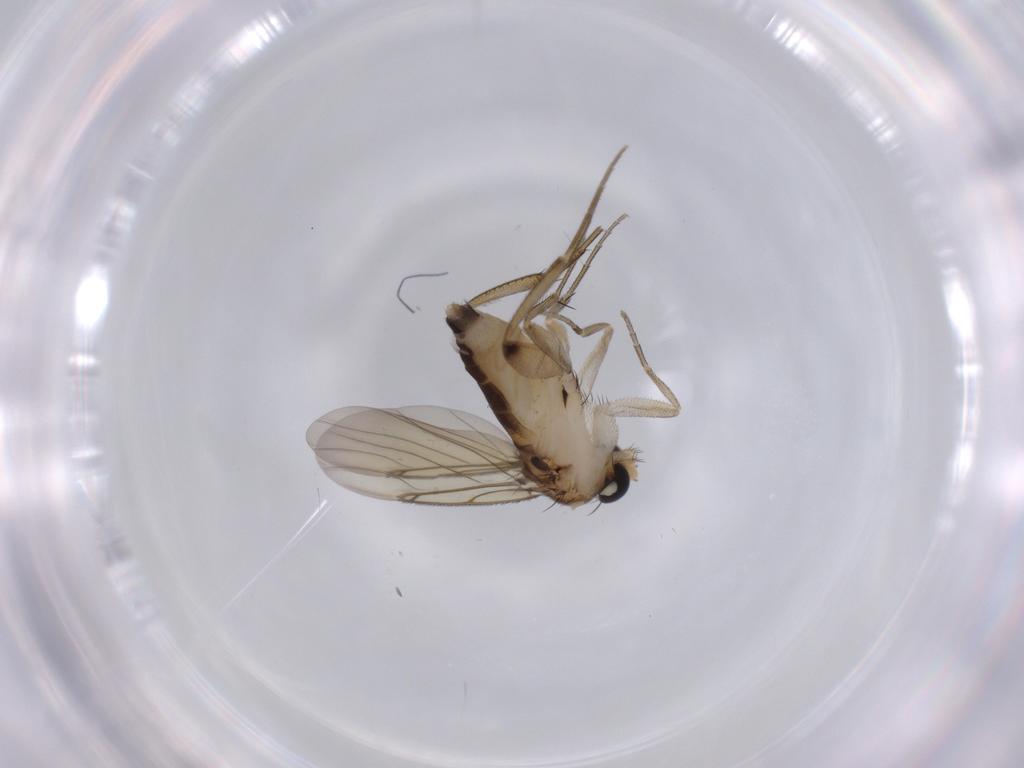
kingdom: Animalia
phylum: Arthropoda
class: Insecta
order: Diptera
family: Phoridae
